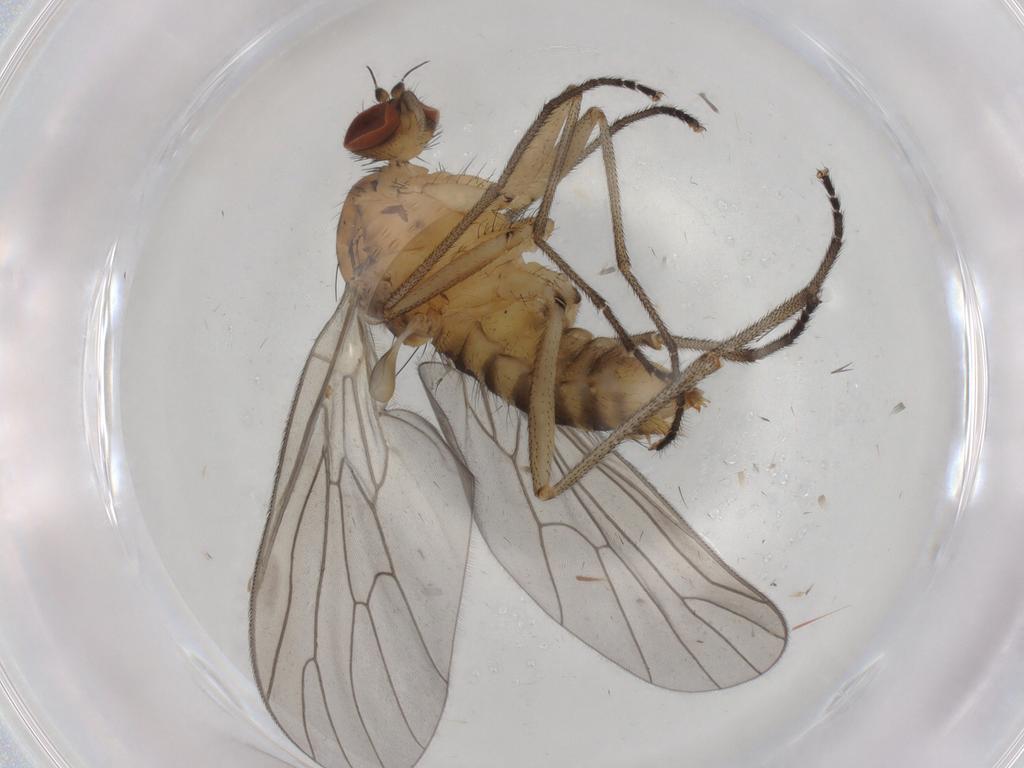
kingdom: Animalia
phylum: Arthropoda
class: Insecta
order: Diptera
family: Brachystomatidae
